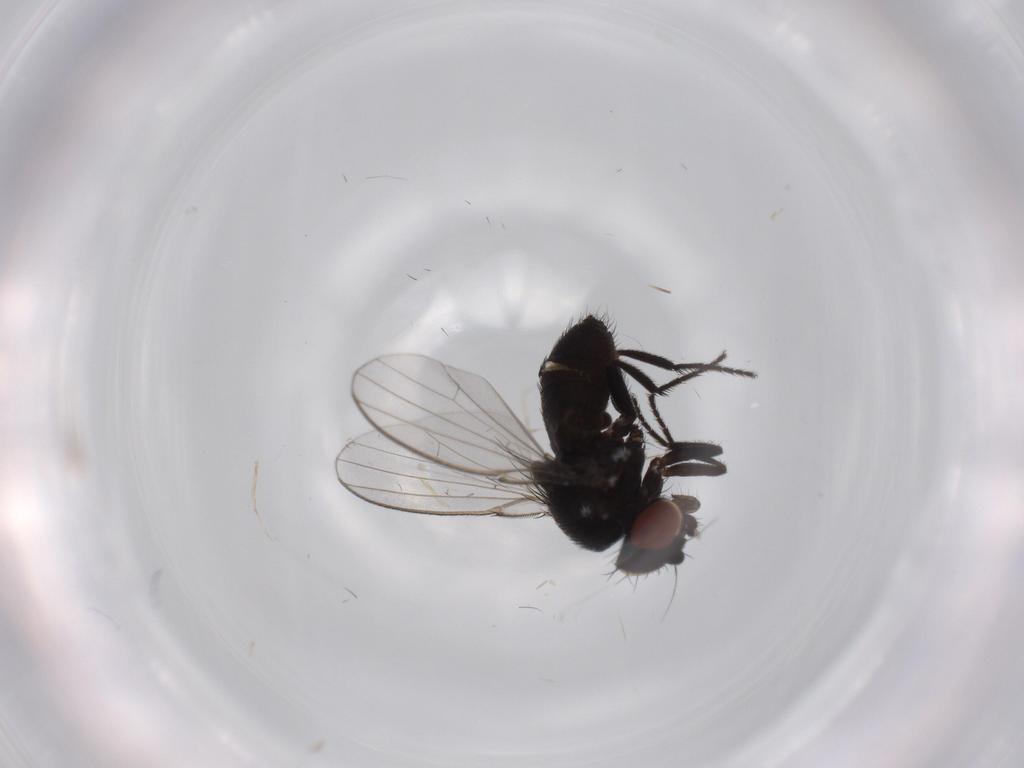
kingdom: Animalia
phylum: Arthropoda
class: Insecta
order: Diptera
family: Milichiidae
